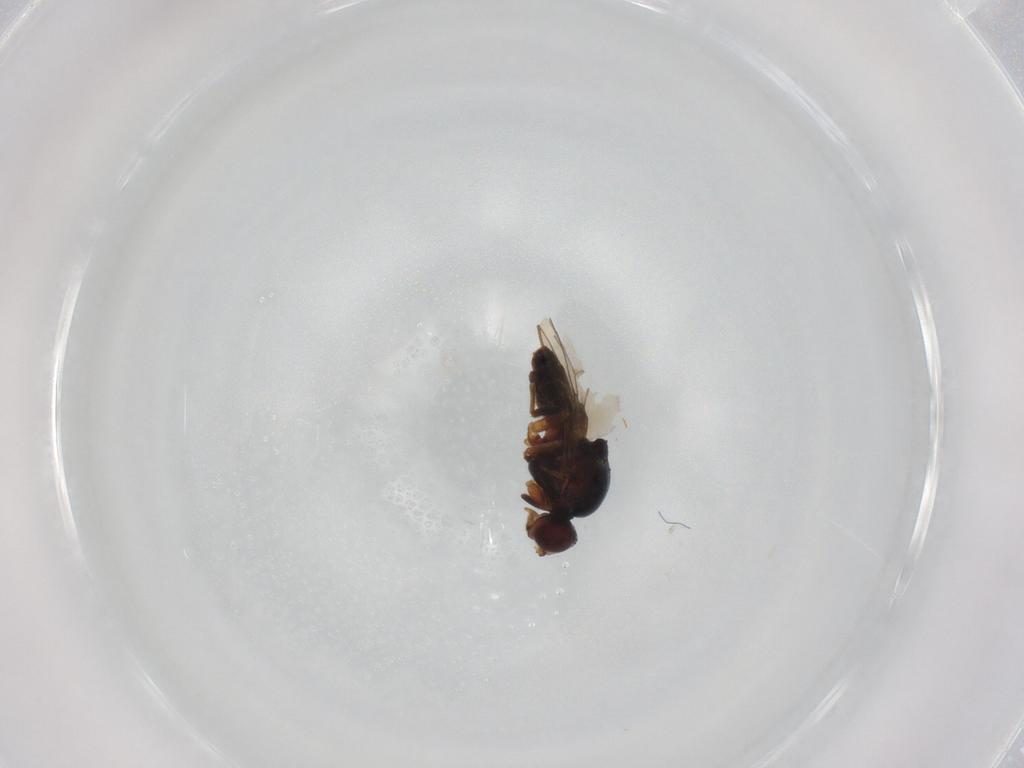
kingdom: Animalia
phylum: Arthropoda
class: Insecta
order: Diptera
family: Chloropidae
